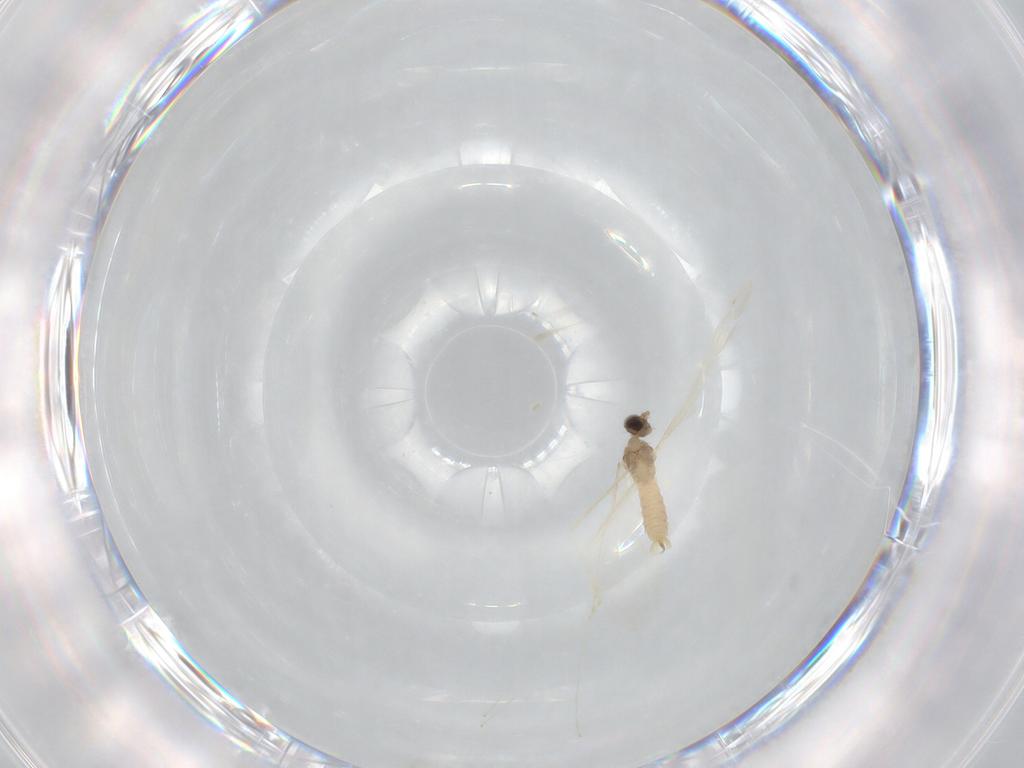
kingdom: Animalia
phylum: Arthropoda
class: Insecta
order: Diptera
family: Cecidomyiidae
